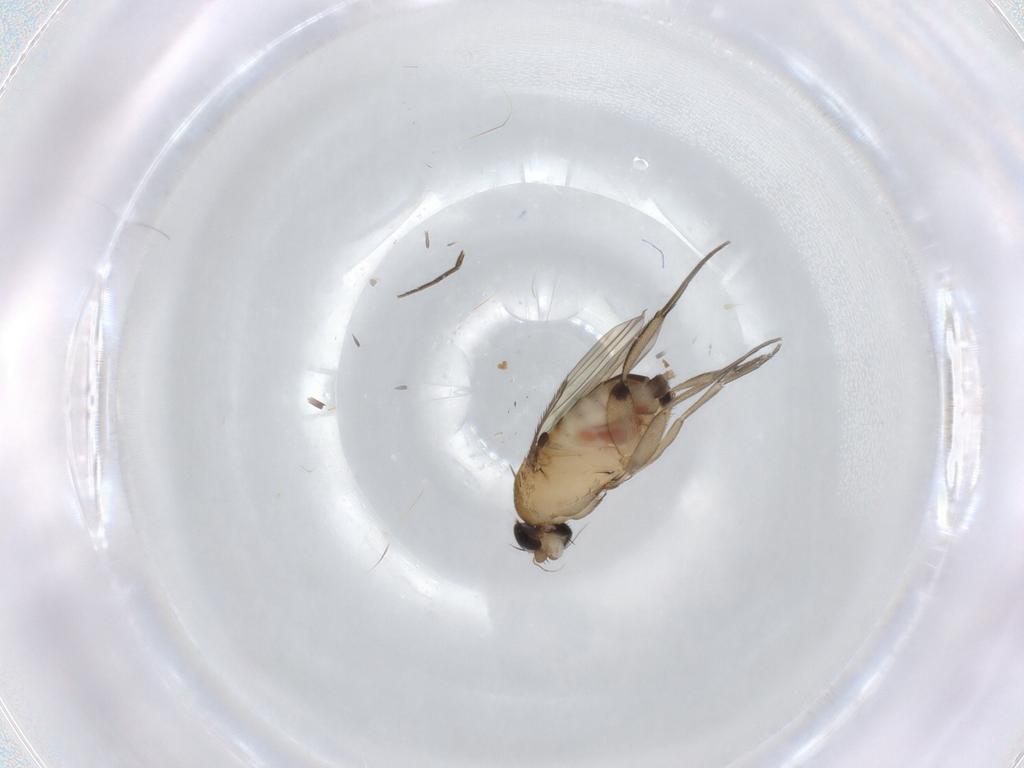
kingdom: Animalia
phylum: Arthropoda
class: Insecta
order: Diptera
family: Phoridae
